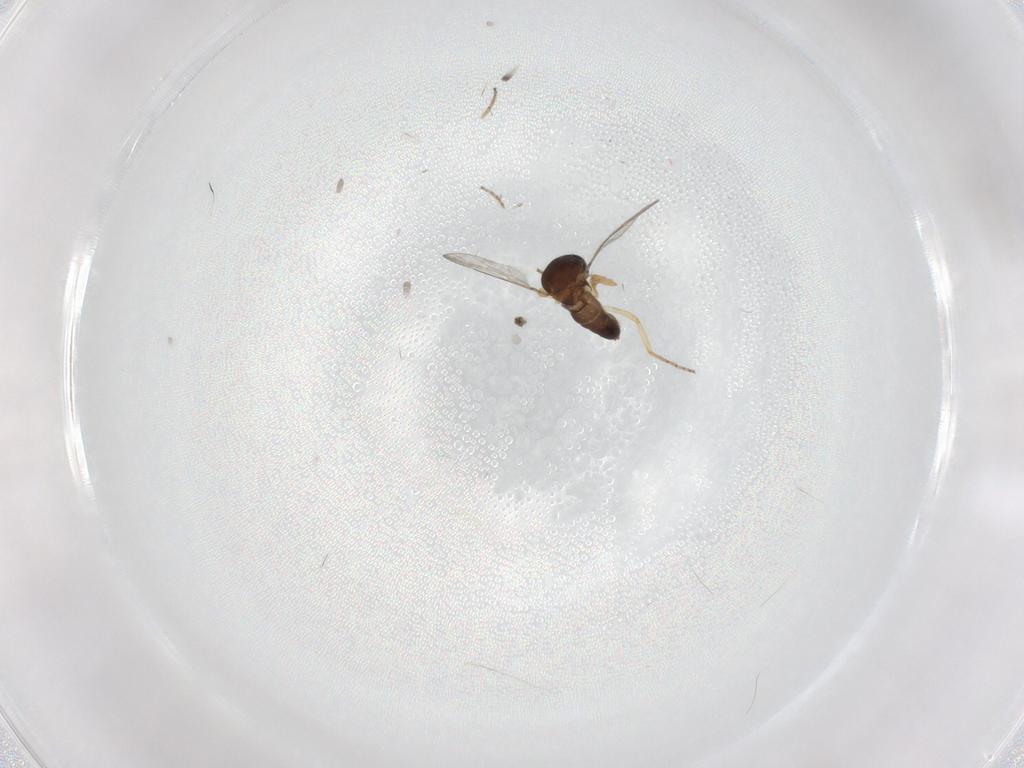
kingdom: Animalia
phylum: Arthropoda
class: Insecta
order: Diptera
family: Ceratopogonidae
